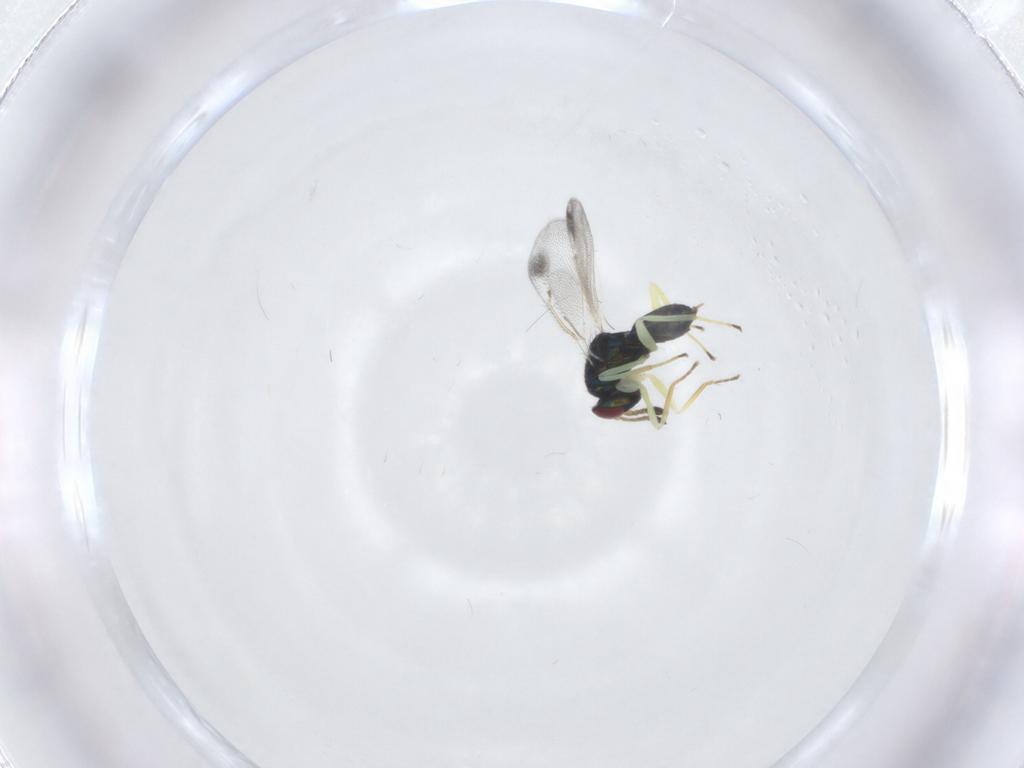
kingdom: Animalia
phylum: Arthropoda
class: Insecta
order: Hymenoptera
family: Eulophidae
